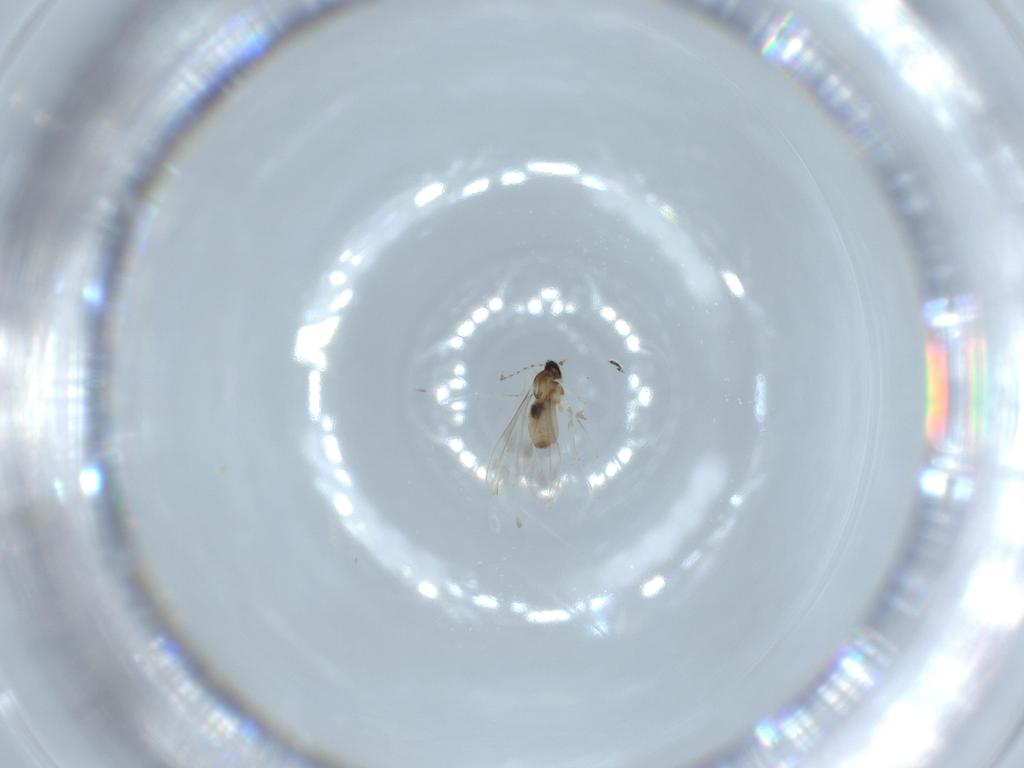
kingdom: Animalia
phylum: Arthropoda
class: Insecta
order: Diptera
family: Cecidomyiidae
